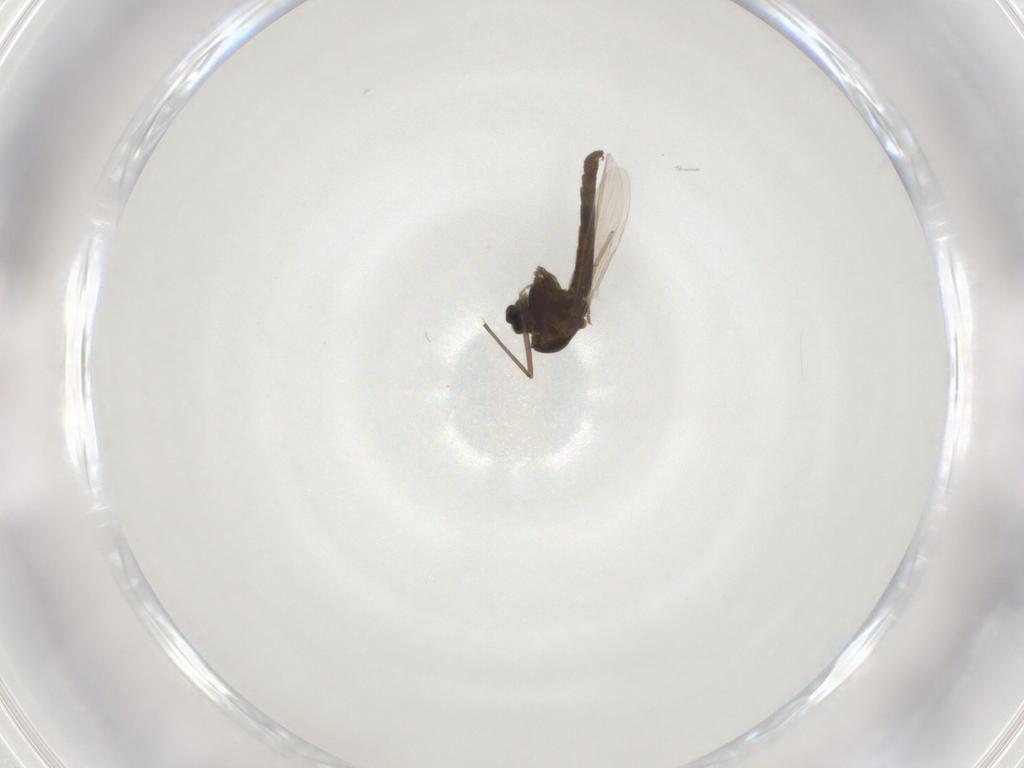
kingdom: Animalia
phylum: Arthropoda
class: Insecta
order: Diptera
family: Chironomidae
